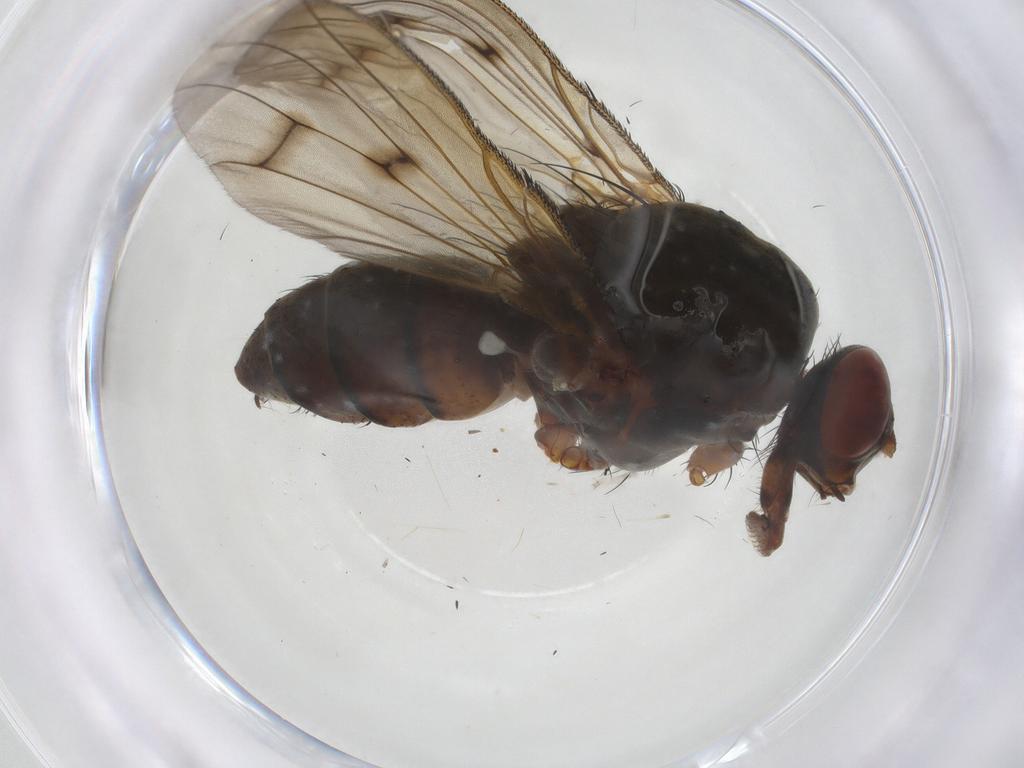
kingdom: Animalia
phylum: Arthropoda
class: Insecta
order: Diptera
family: Anthomyiidae
